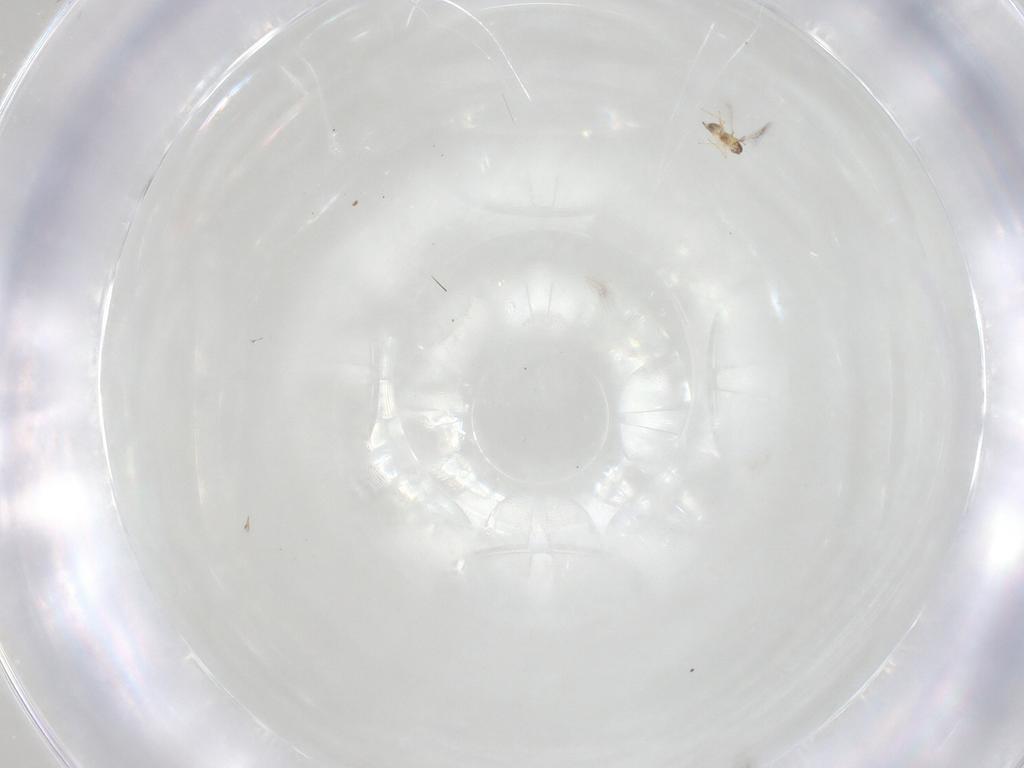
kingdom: Animalia
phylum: Arthropoda
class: Insecta
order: Hymenoptera
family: Mymaridae
